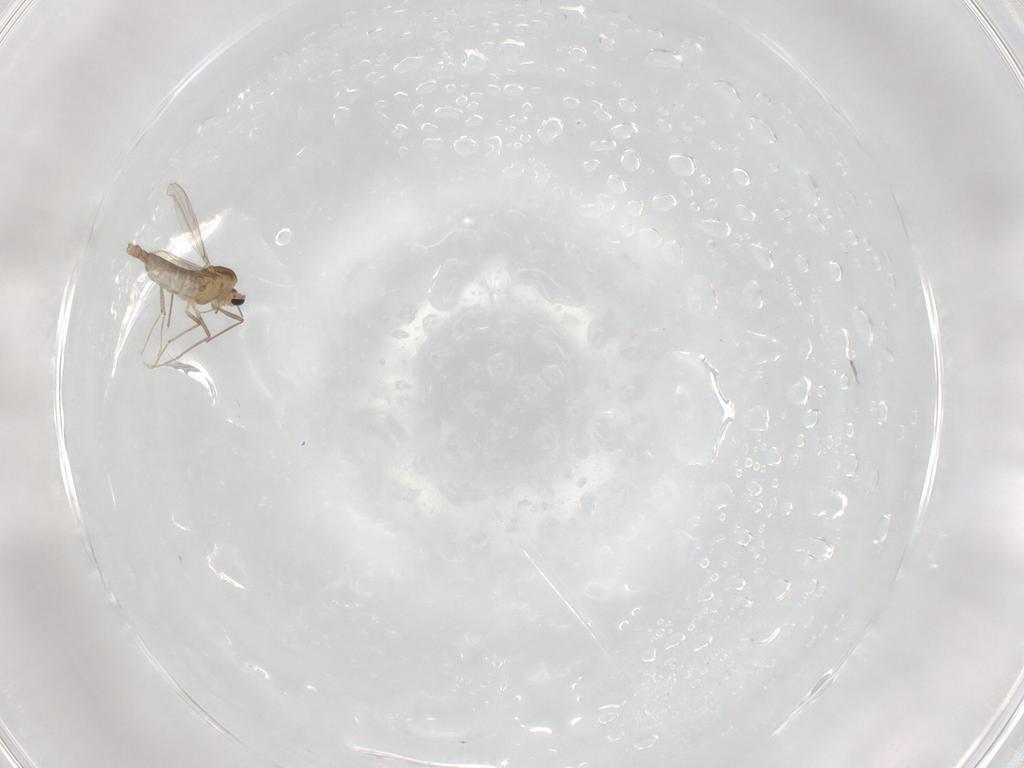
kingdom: Animalia
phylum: Arthropoda
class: Insecta
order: Diptera
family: Chironomidae
